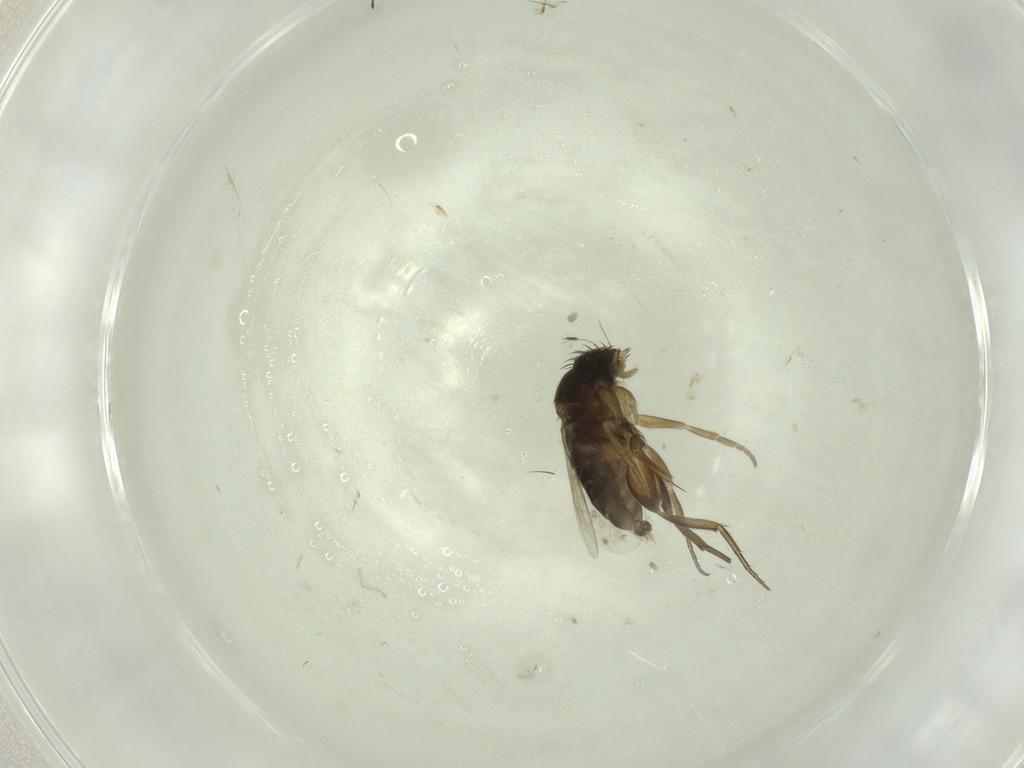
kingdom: Animalia
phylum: Arthropoda
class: Insecta
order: Diptera
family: Phoridae
